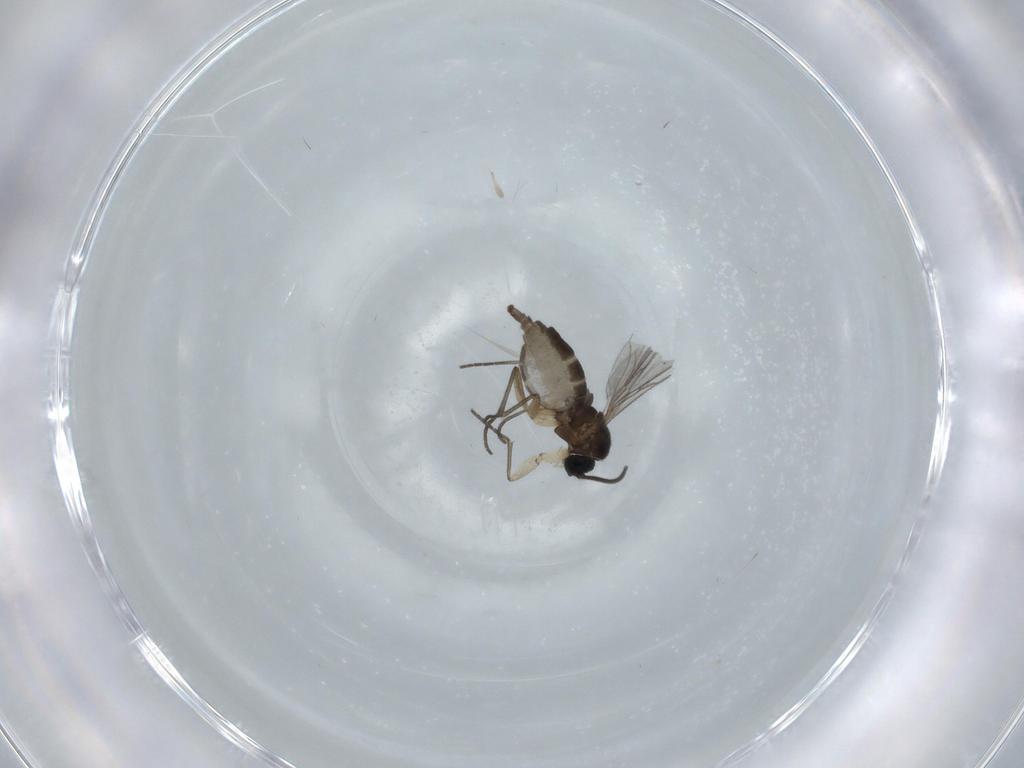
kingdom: Animalia
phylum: Arthropoda
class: Insecta
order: Diptera
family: Sciaridae
